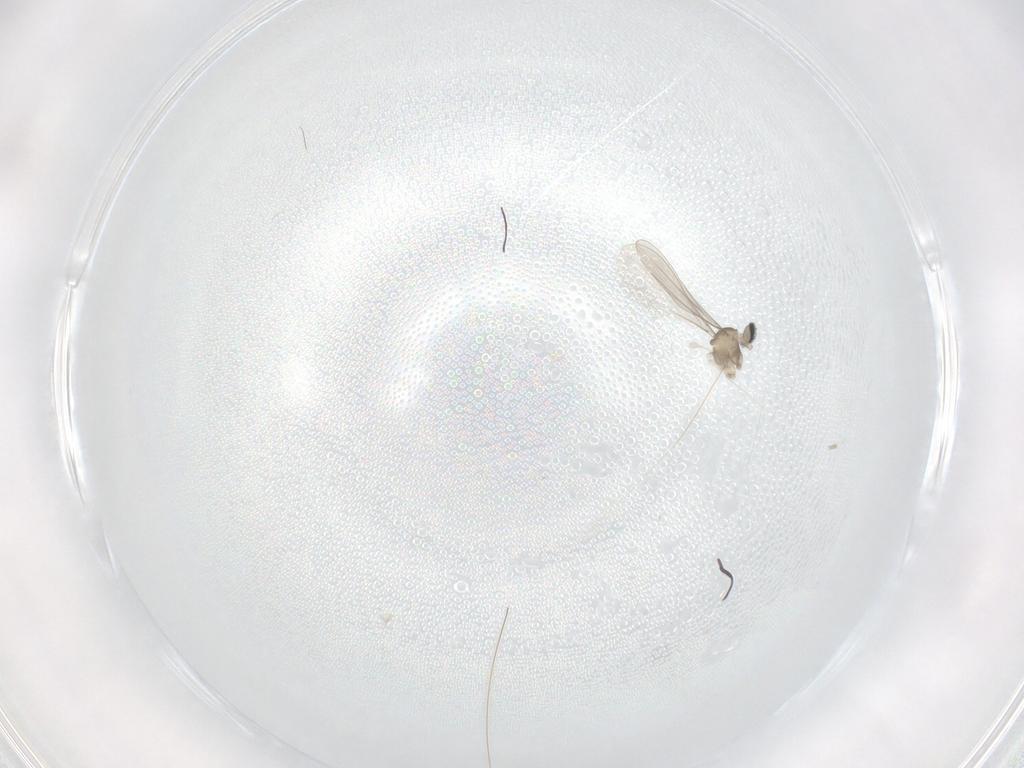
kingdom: Animalia
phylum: Arthropoda
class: Insecta
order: Diptera
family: Cecidomyiidae
